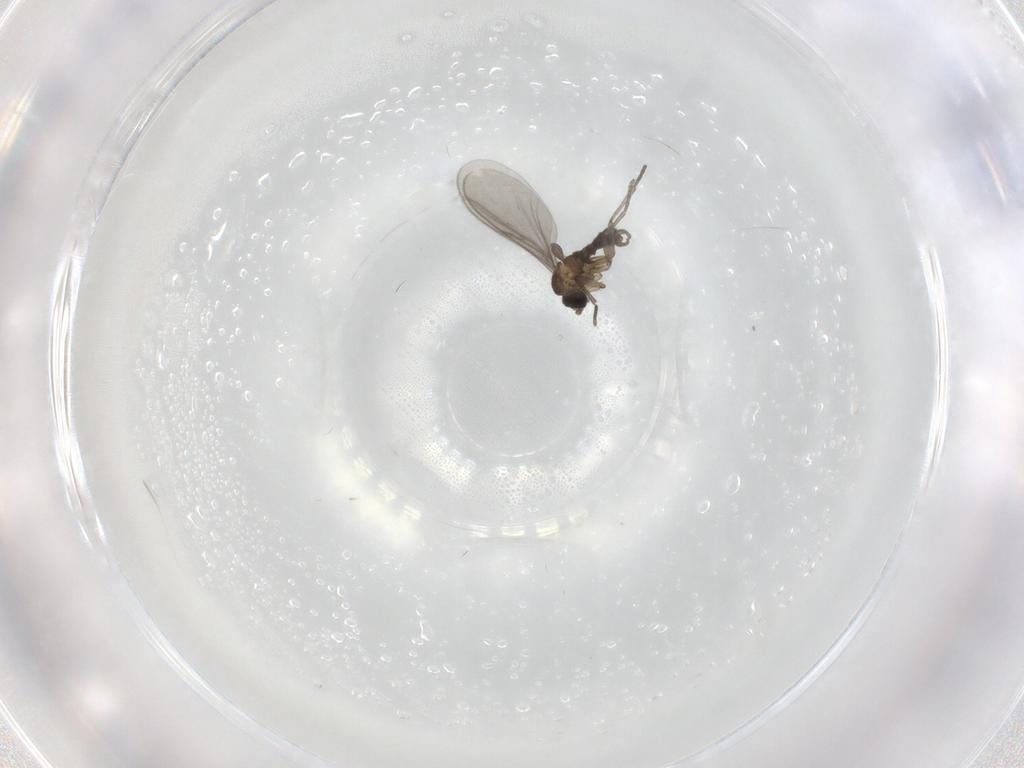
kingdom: Animalia
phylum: Arthropoda
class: Insecta
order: Diptera
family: Sciaridae
